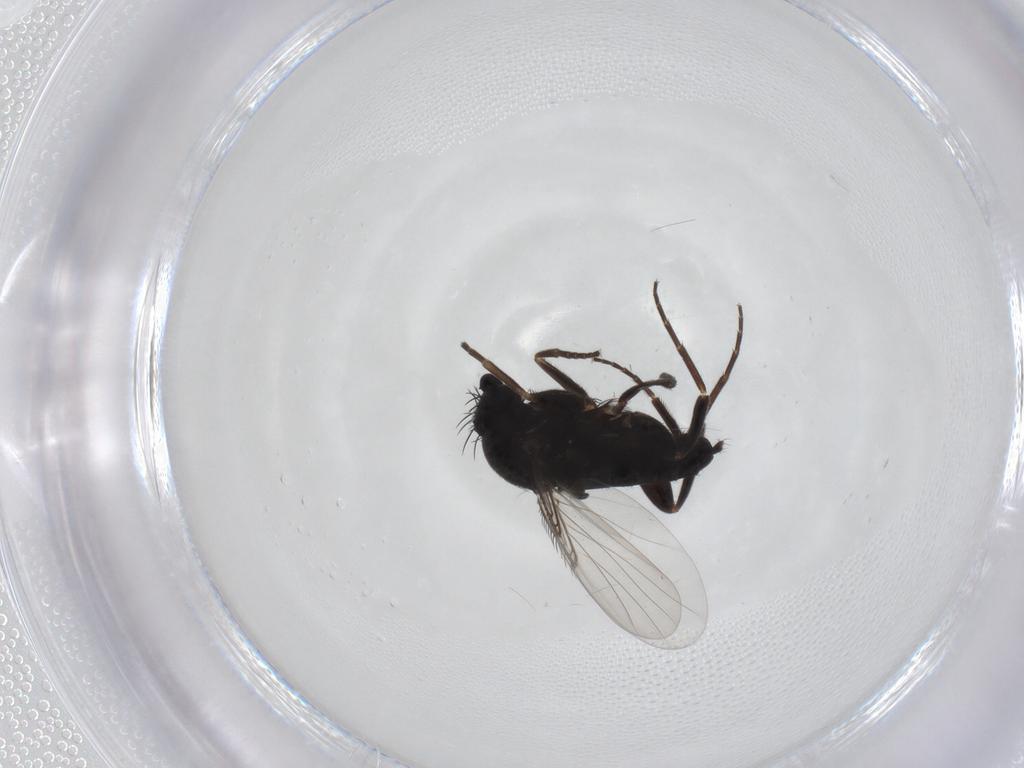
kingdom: Animalia
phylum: Arthropoda
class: Insecta
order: Diptera
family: Phoridae
